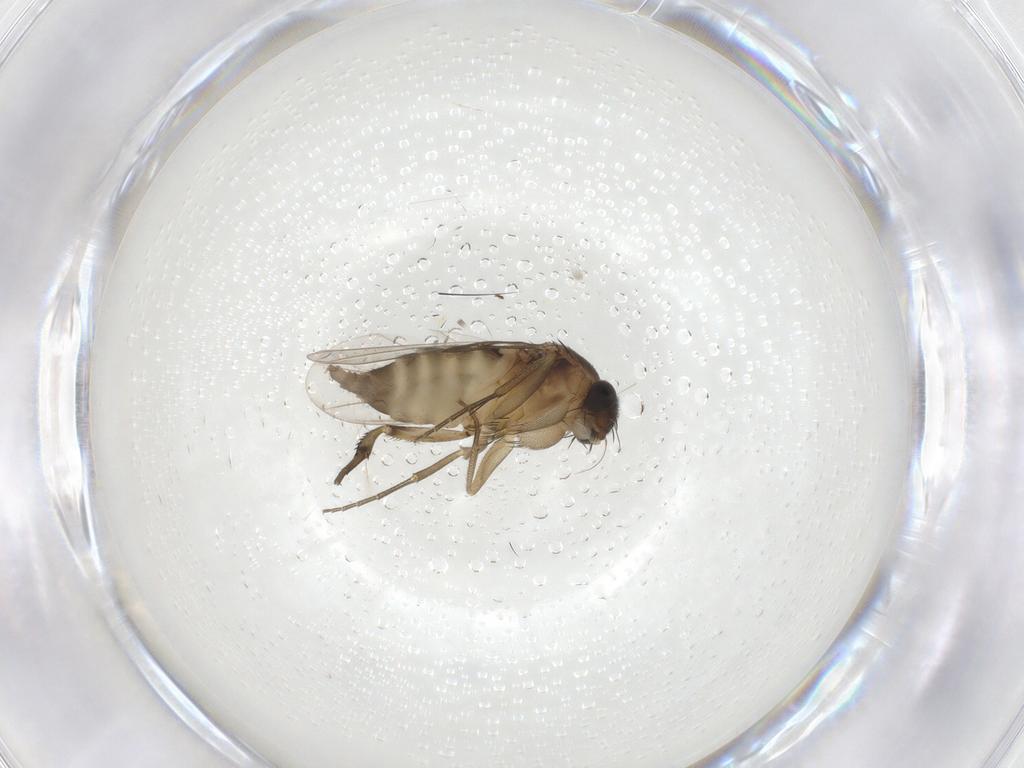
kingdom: Animalia
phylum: Arthropoda
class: Insecta
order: Diptera
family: Phoridae
